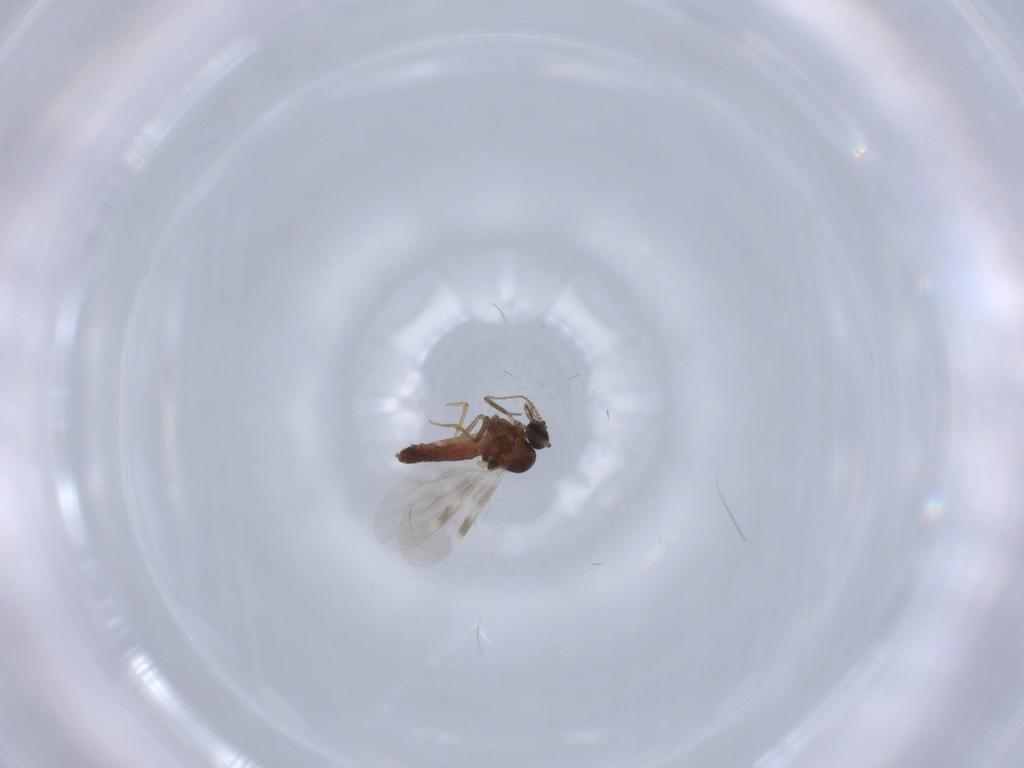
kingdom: Animalia
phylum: Arthropoda
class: Insecta
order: Diptera
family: Ceratopogonidae
